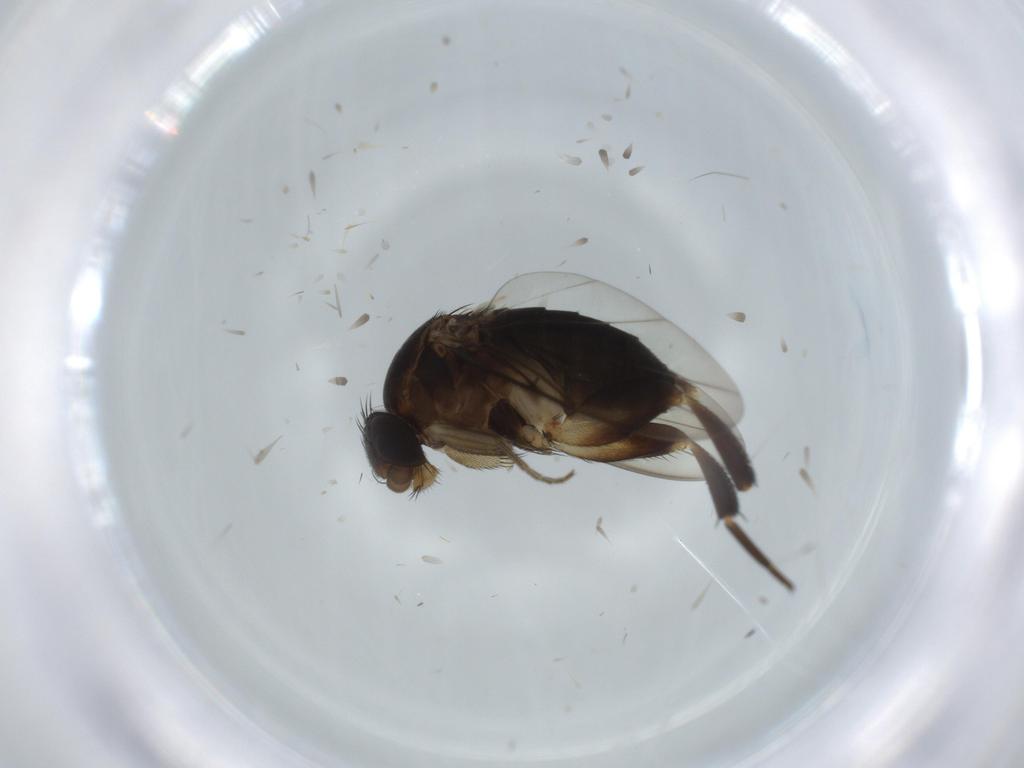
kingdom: Animalia
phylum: Arthropoda
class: Insecta
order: Diptera
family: Phoridae
